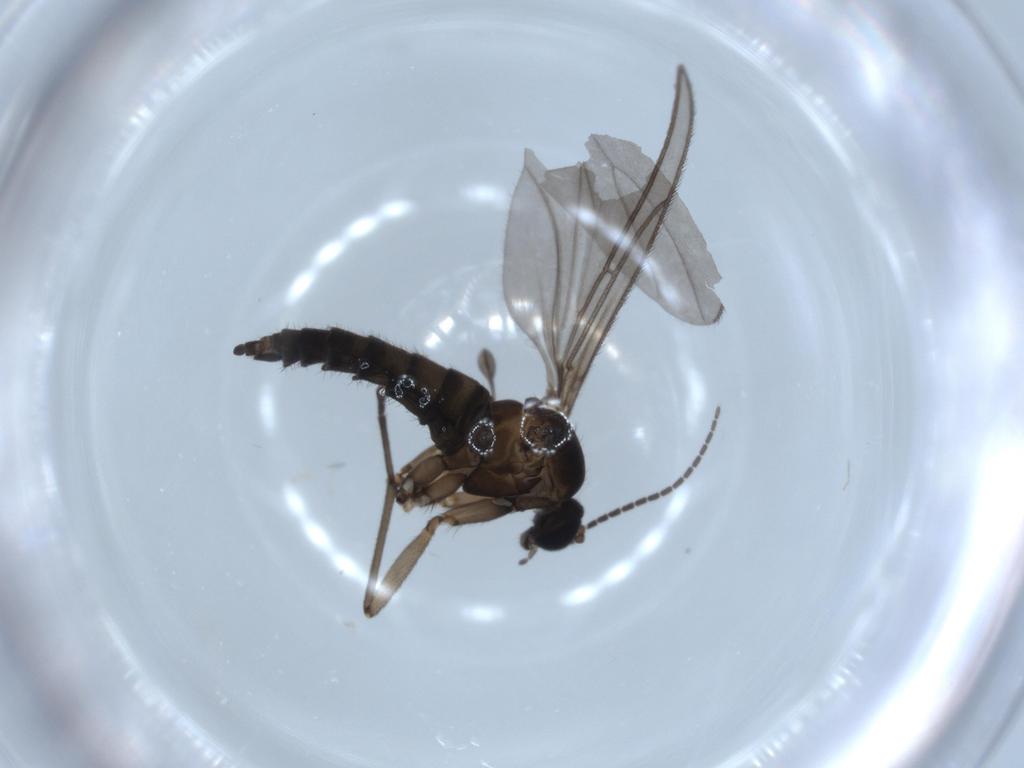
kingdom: Animalia
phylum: Arthropoda
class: Insecta
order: Diptera
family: Sciaridae
